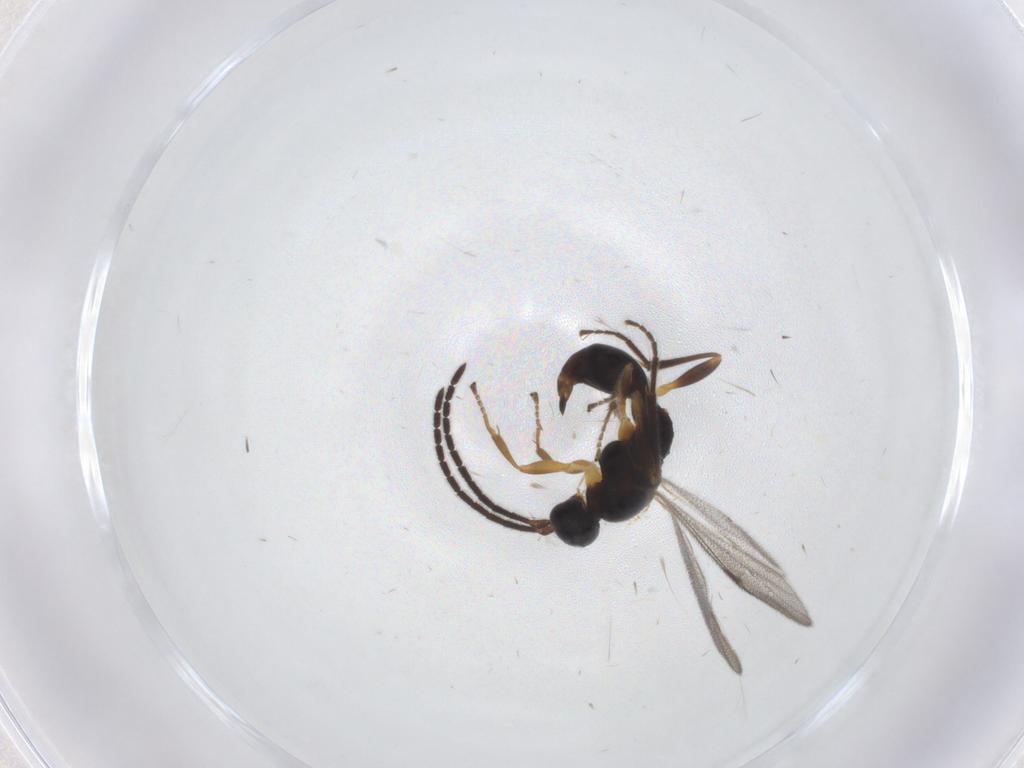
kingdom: Animalia
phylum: Arthropoda
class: Insecta
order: Hymenoptera
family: Proctotrupidae
